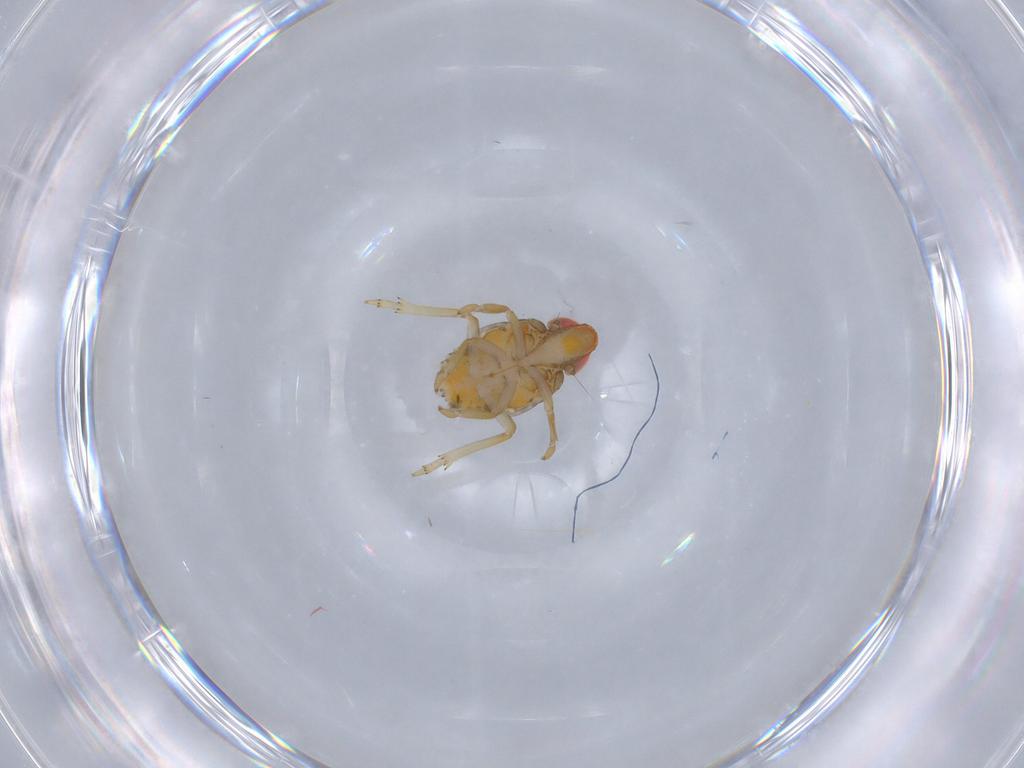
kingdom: Animalia
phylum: Arthropoda
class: Insecta
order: Hemiptera
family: Fulgoroidea_incertae_sedis
